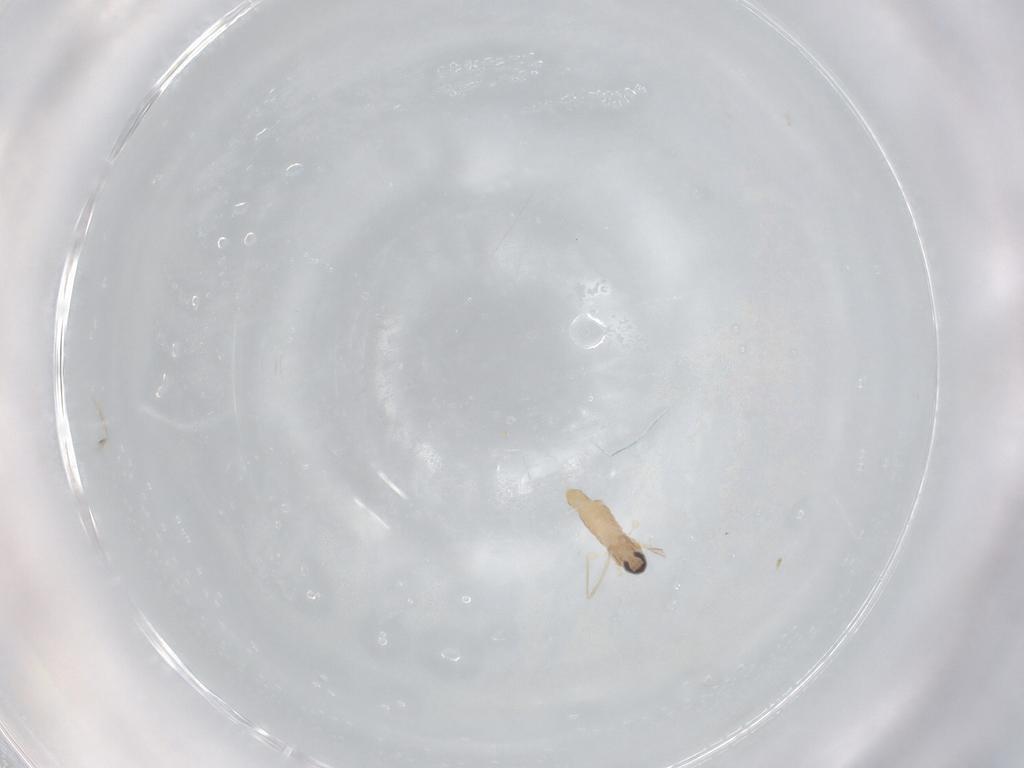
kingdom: Animalia
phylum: Arthropoda
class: Insecta
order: Diptera
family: Cecidomyiidae
